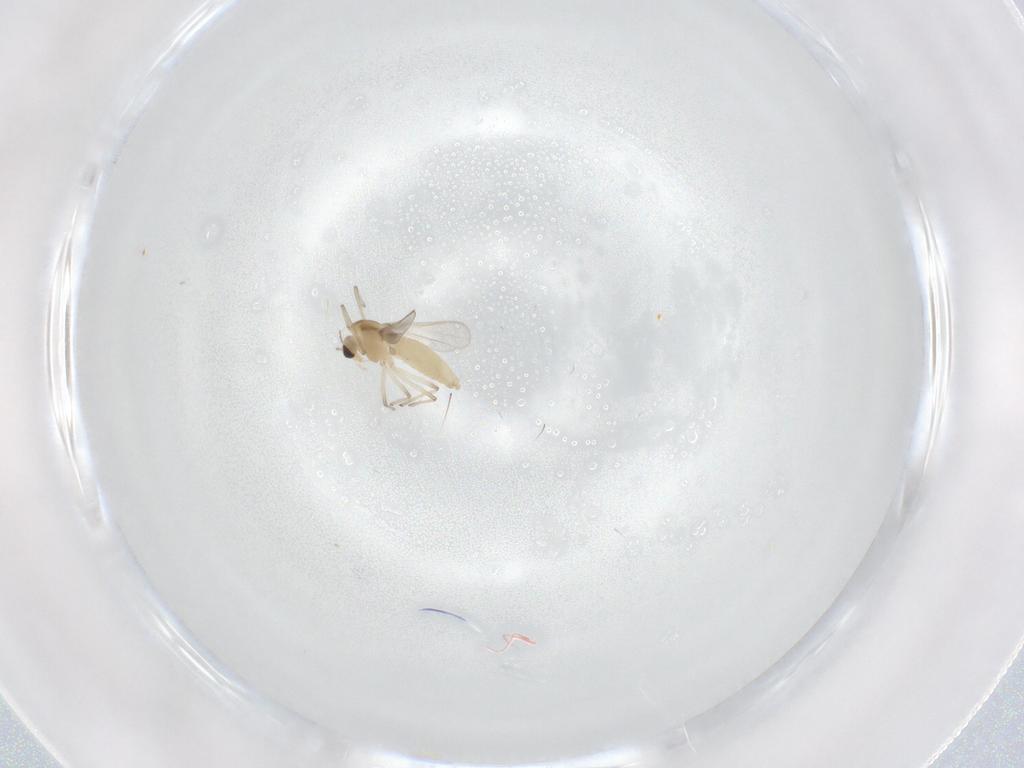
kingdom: Animalia
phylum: Arthropoda
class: Insecta
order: Diptera
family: Chironomidae
